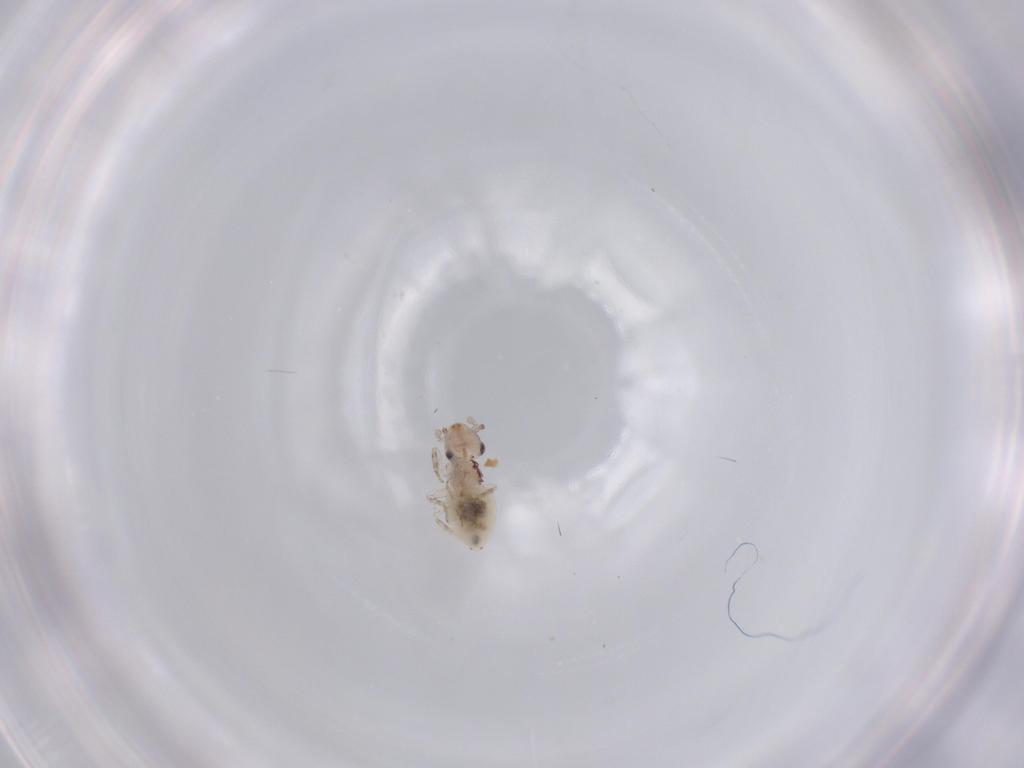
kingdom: Animalia
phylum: Arthropoda
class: Insecta
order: Psocodea
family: Lepidopsocidae
